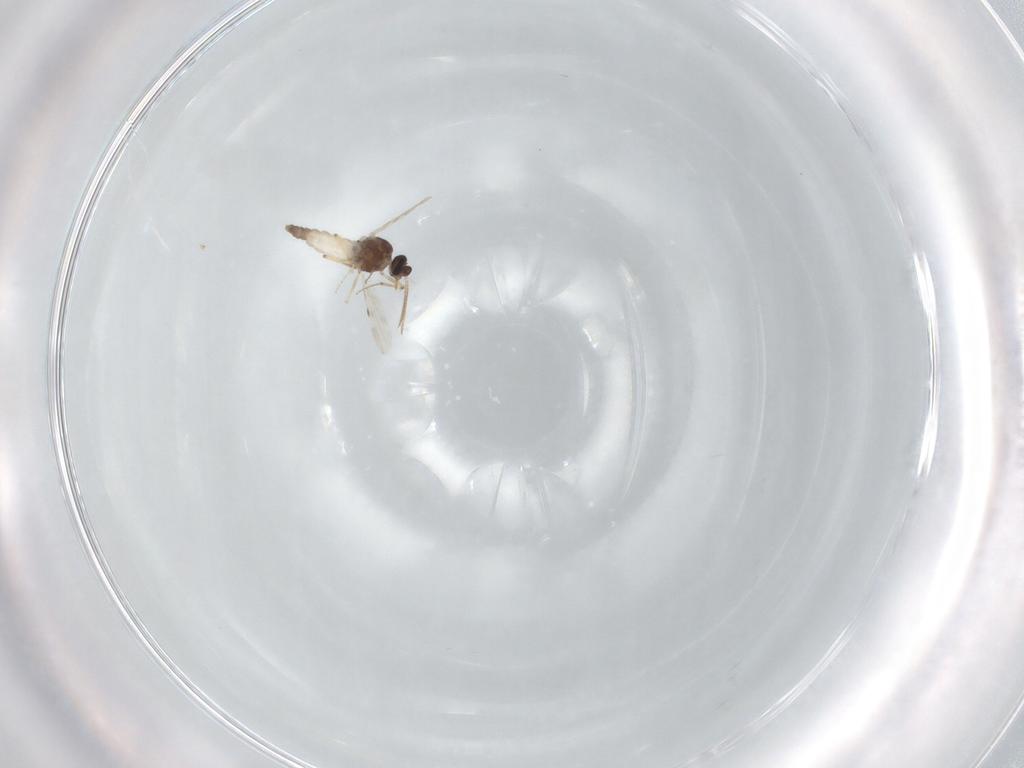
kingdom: Animalia
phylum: Arthropoda
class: Insecta
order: Diptera
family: Ceratopogonidae
